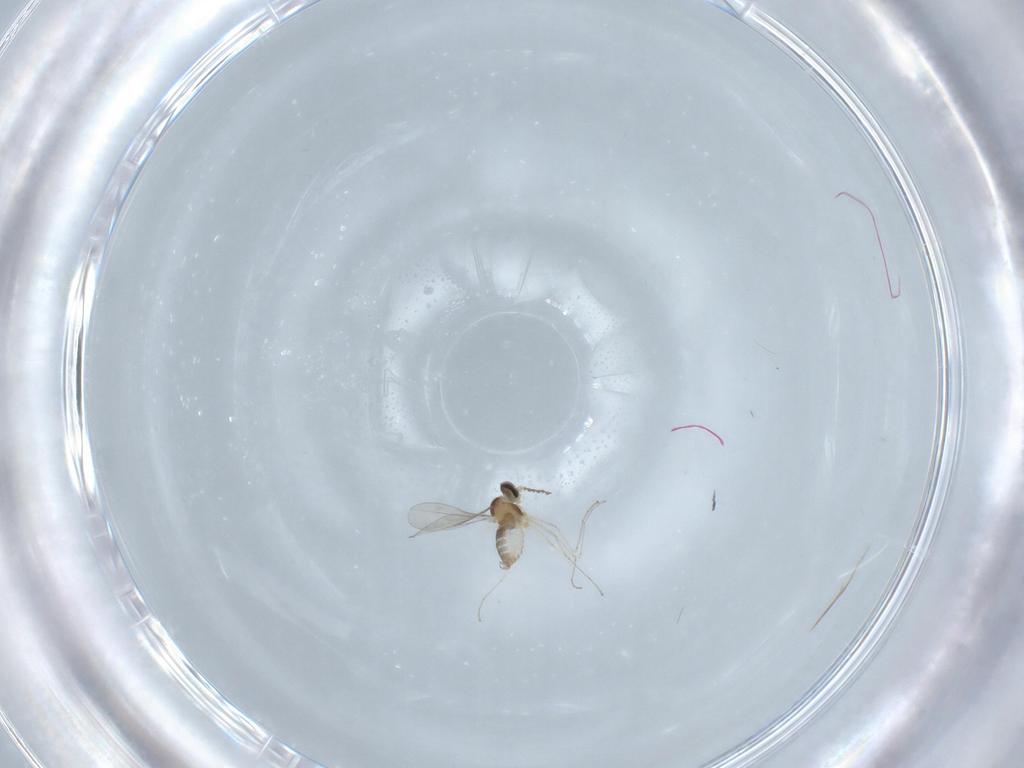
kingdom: Animalia
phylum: Arthropoda
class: Insecta
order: Diptera
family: Cecidomyiidae
